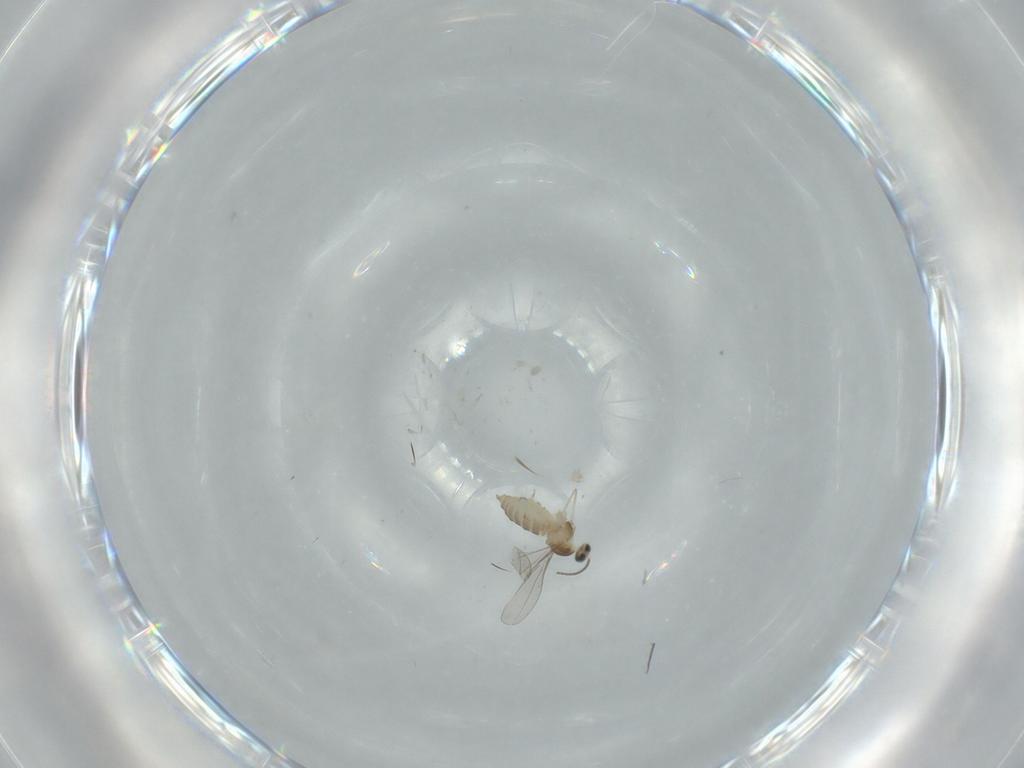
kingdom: Animalia
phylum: Arthropoda
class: Insecta
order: Diptera
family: Cecidomyiidae
